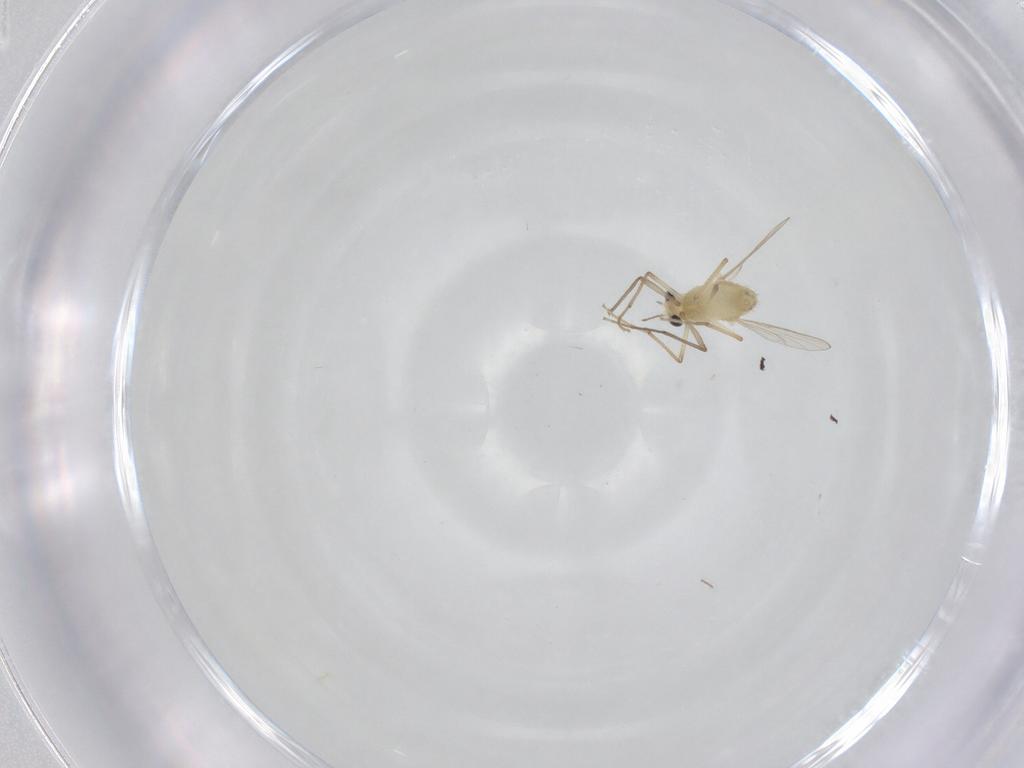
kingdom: Animalia
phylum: Arthropoda
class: Insecta
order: Diptera
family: Chironomidae
